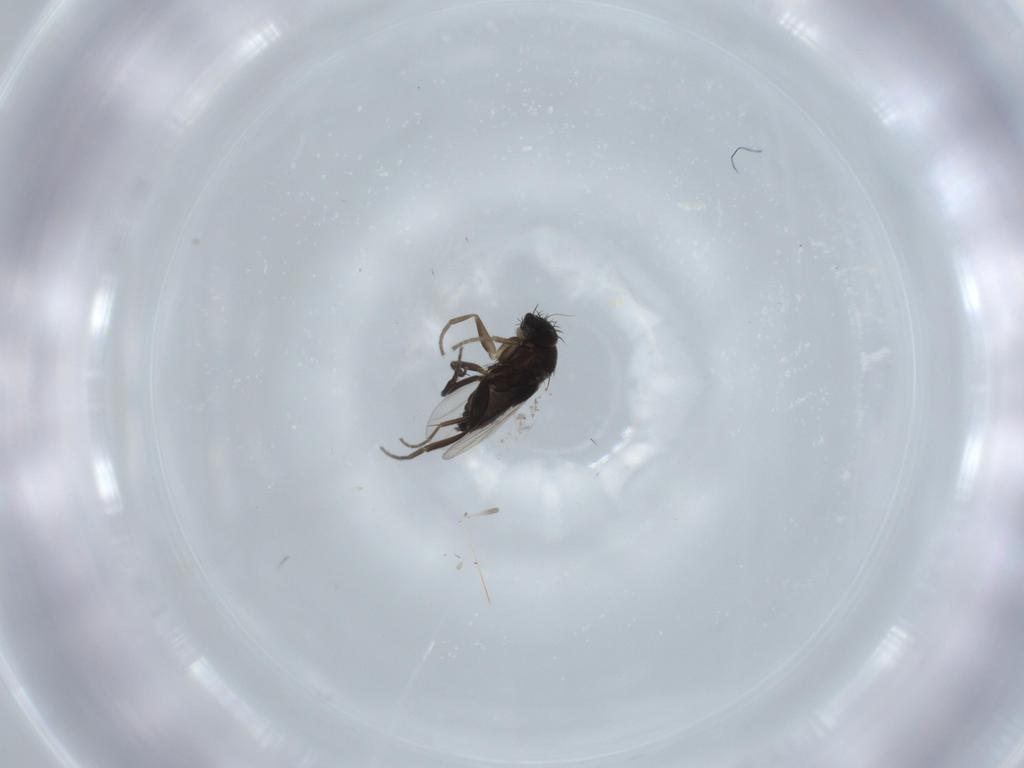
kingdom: Animalia
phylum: Arthropoda
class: Insecta
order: Diptera
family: Phoridae
